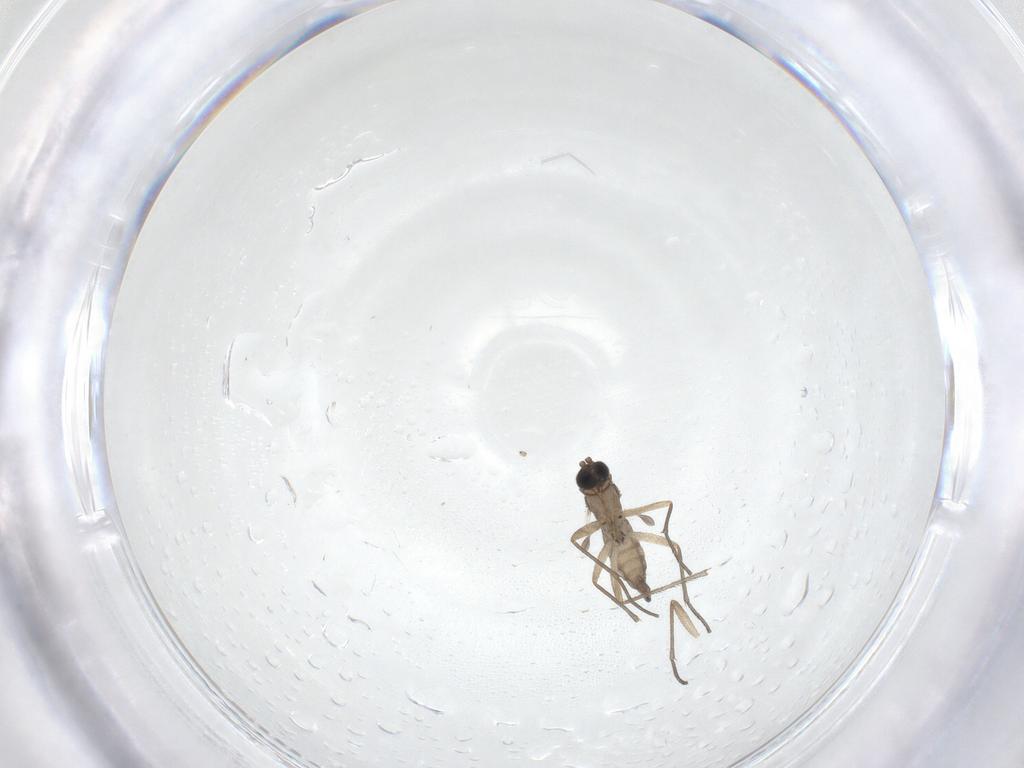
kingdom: Animalia
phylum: Arthropoda
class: Insecta
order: Diptera
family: Sciaridae
